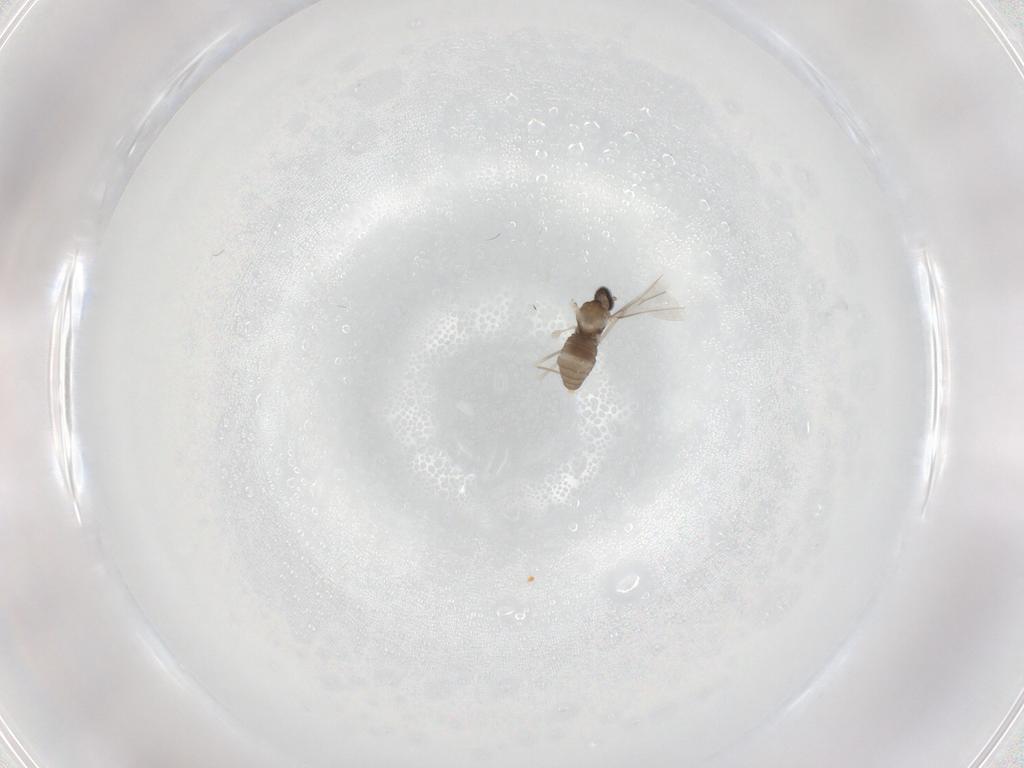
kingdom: Animalia
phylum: Arthropoda
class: Insecta
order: Diptera
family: Cecidomyiidae
